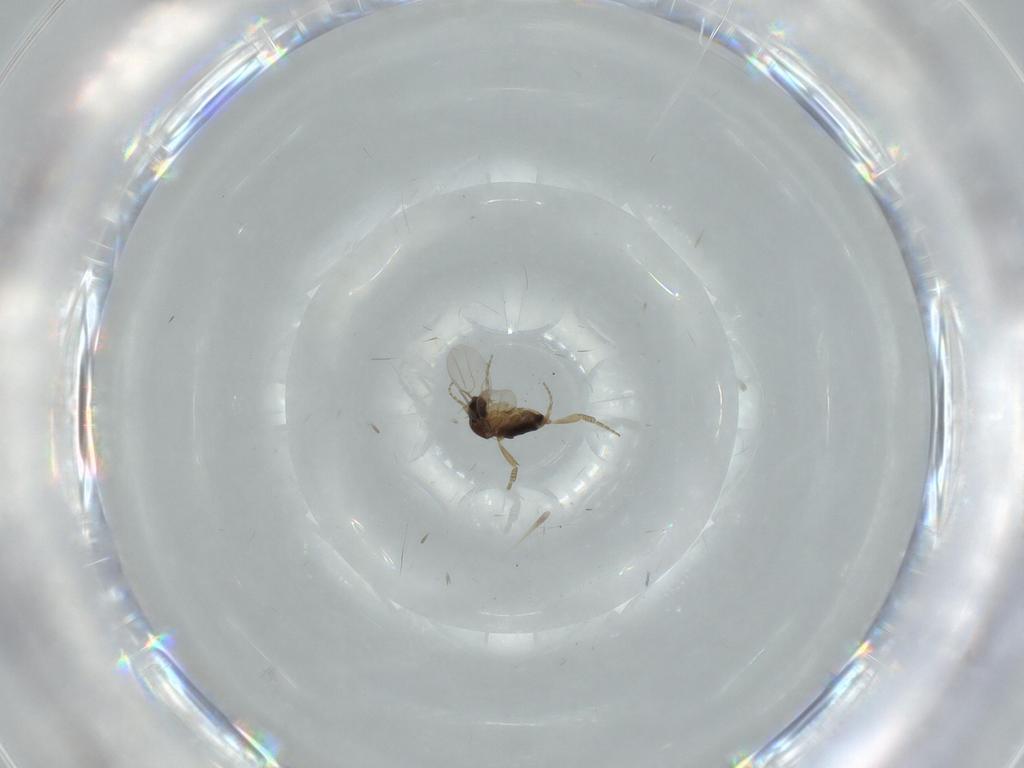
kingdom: Animalia
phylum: Arthropoda
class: Insecta
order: Diptera
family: Phoridae
